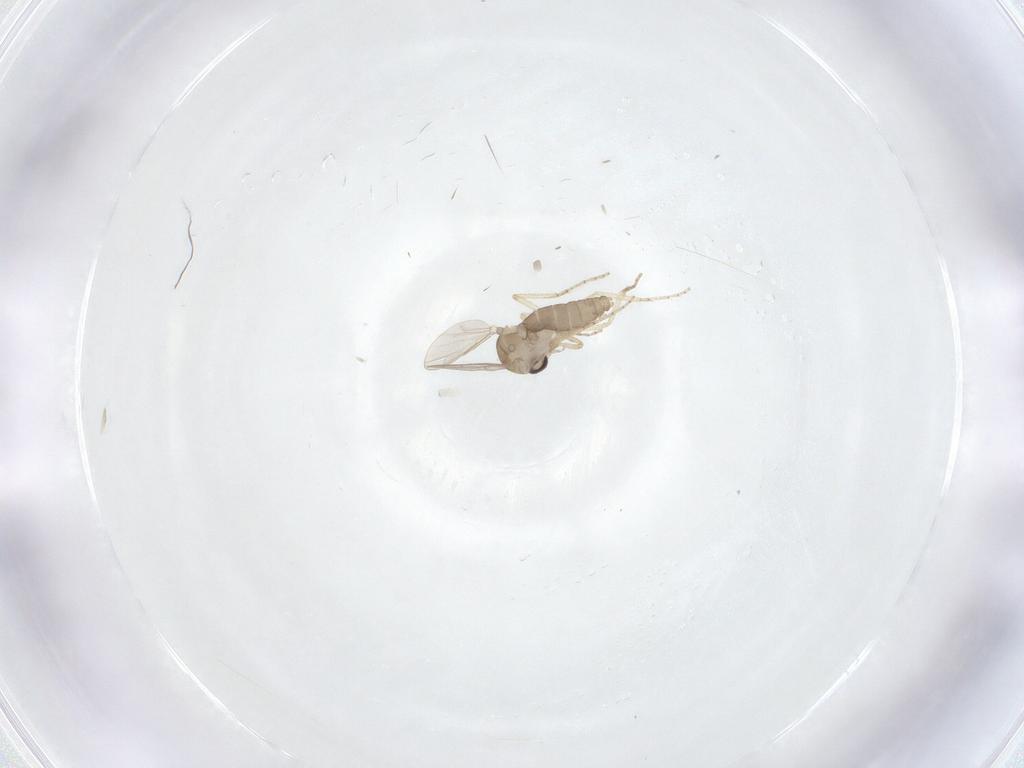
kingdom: Animalia
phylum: Arthropoda
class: Insecta
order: Diptera
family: Ceratopogonidae
